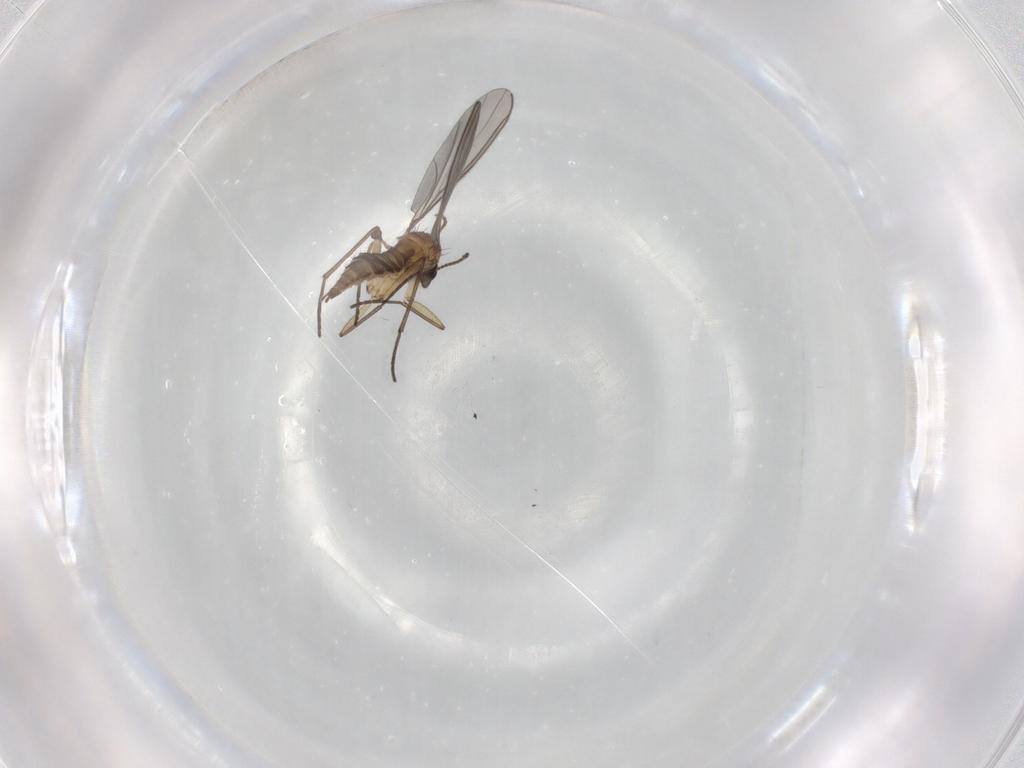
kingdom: Animalia
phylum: Arthropoda
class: Insecta
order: Diptera
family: Sciaridae
